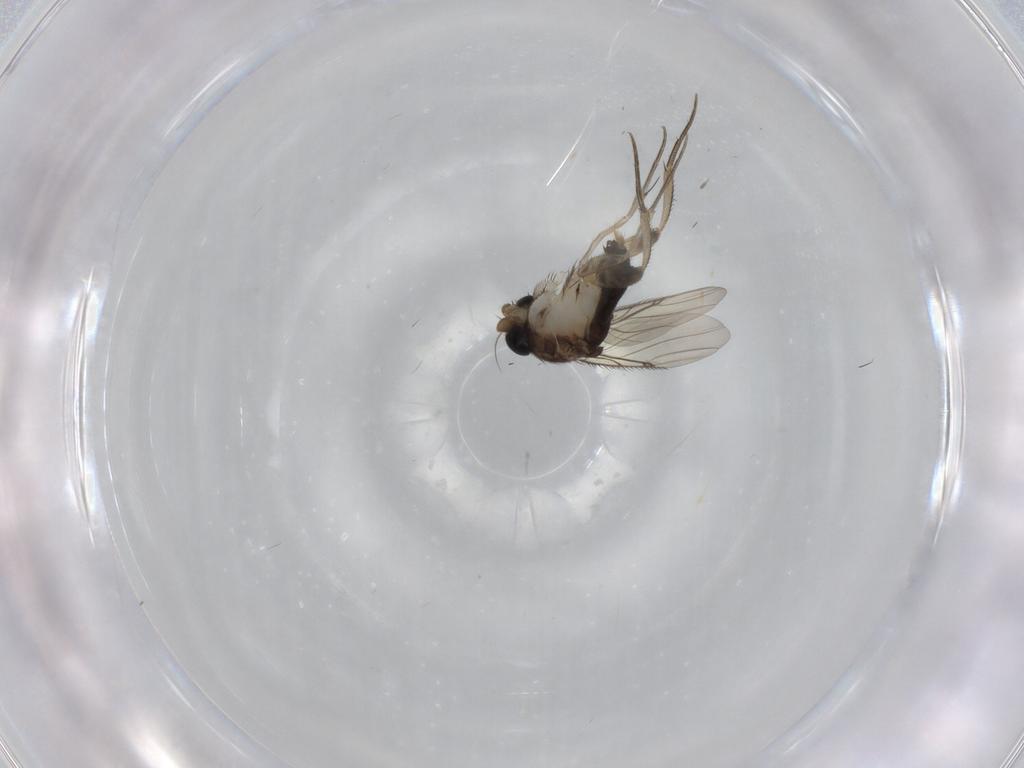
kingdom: Animalia
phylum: Arthropoda
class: Insecta
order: Diptera
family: Phoridae
